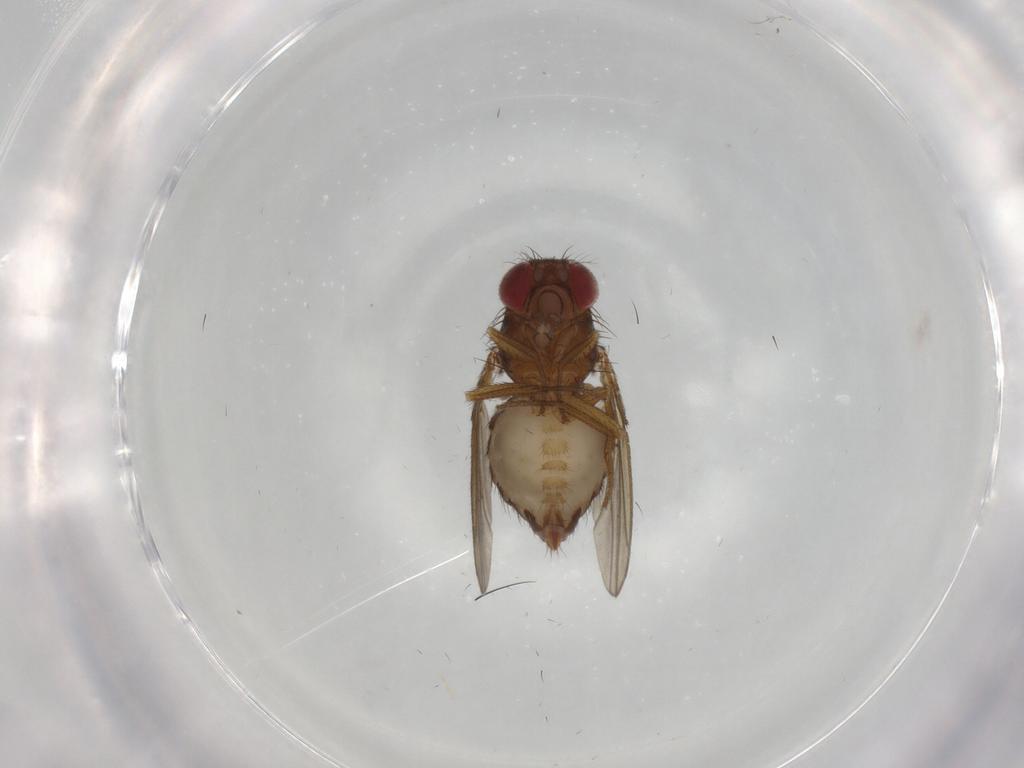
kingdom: Animalia
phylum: Arthropoda
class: Insecta
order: Diptera
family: Drosophilidae
